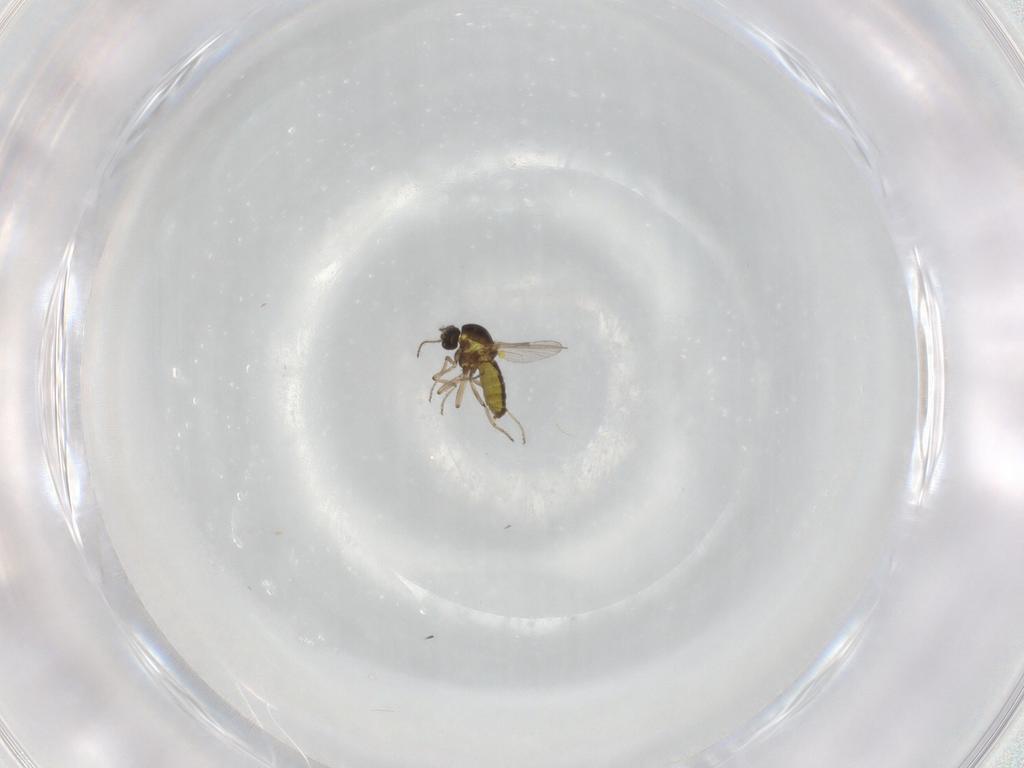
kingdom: Animalia
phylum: Arthropoda
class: Insecta
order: Diptera
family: Ceratopogonidae
